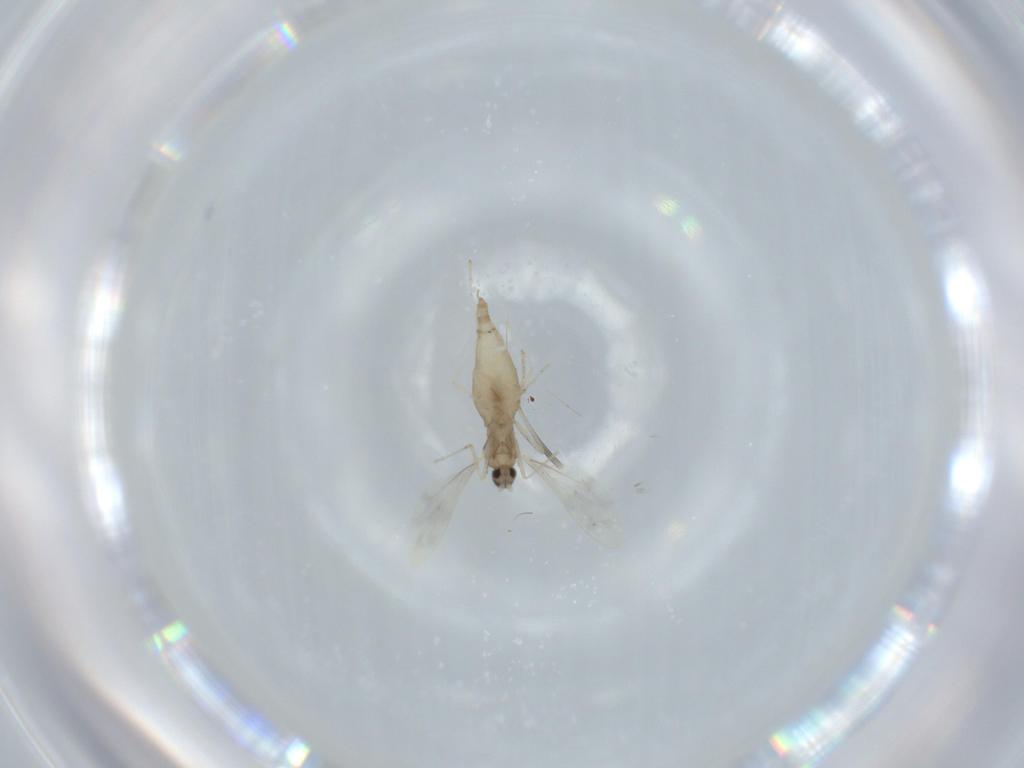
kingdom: Animalia
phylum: Arthropoda
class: Insecta
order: Diptera
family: Cecidomyiidae
